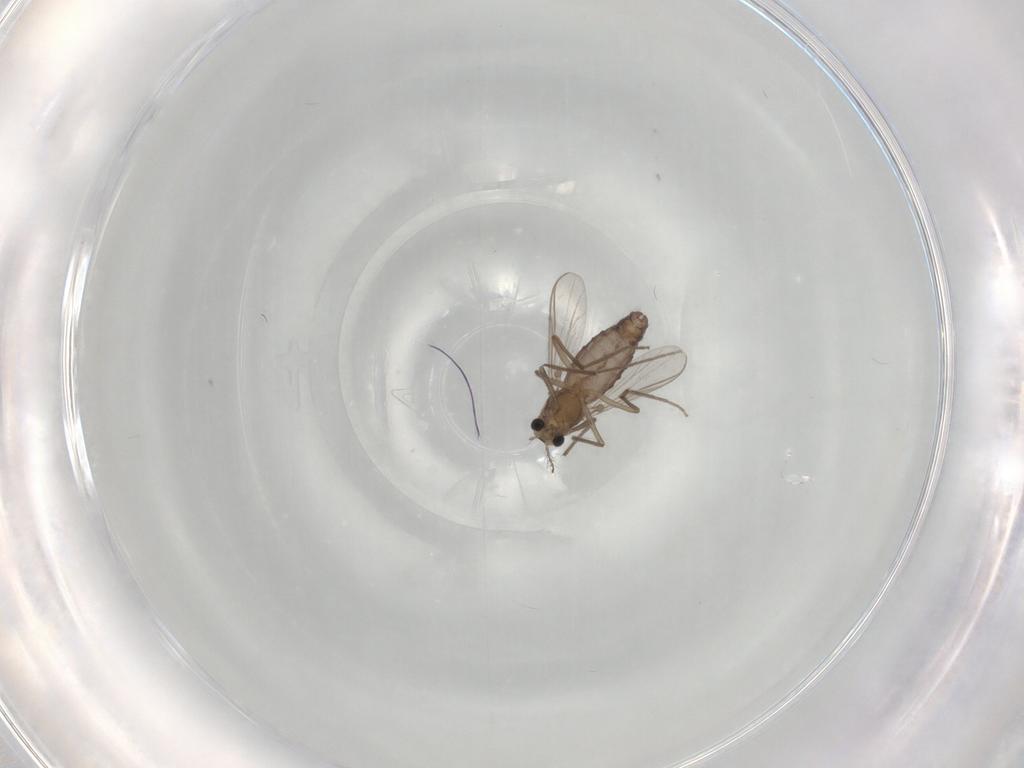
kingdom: Animalia
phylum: Arthropoda
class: Insecta
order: Diptera
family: Chironomidae
